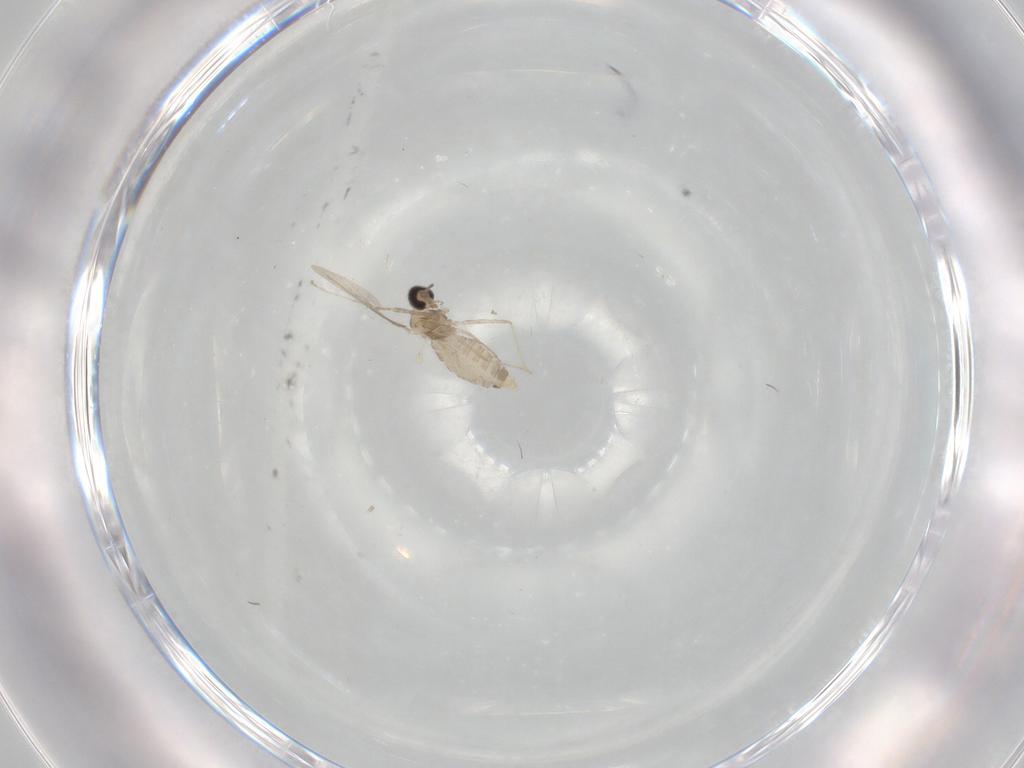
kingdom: Animalia
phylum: Arthropoda
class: Insecta
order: Diptera
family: Cecidomyiidae
